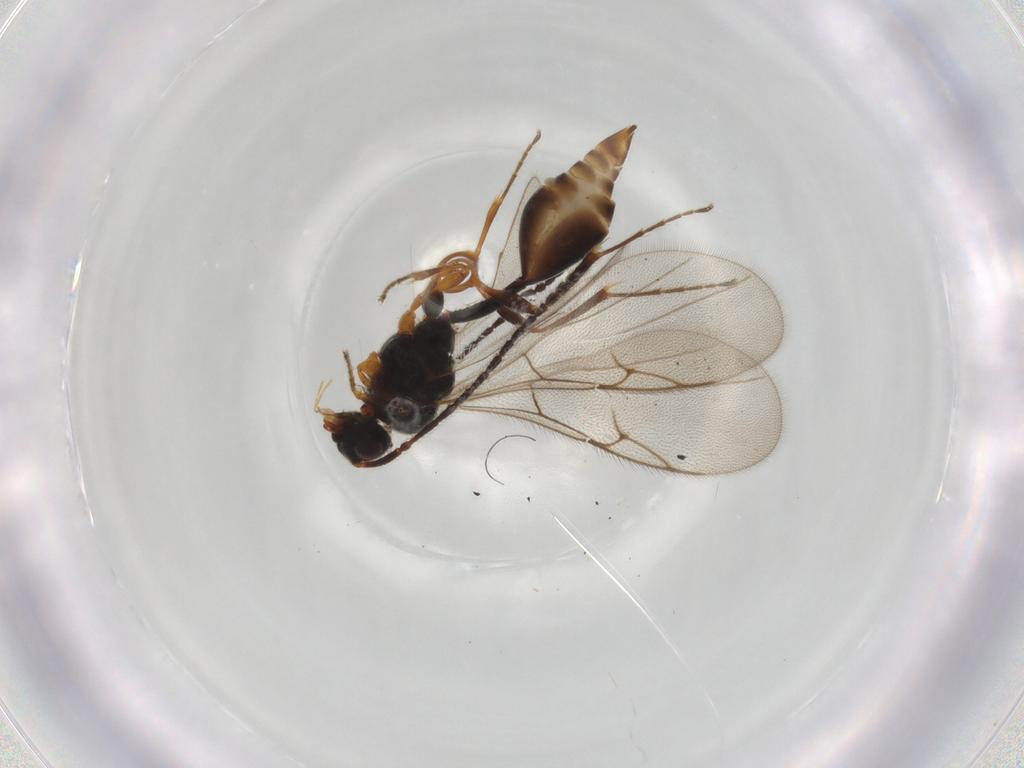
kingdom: Animalia
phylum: Arthropoda
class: Insecta
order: Hymenoptera
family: Diapriidae
